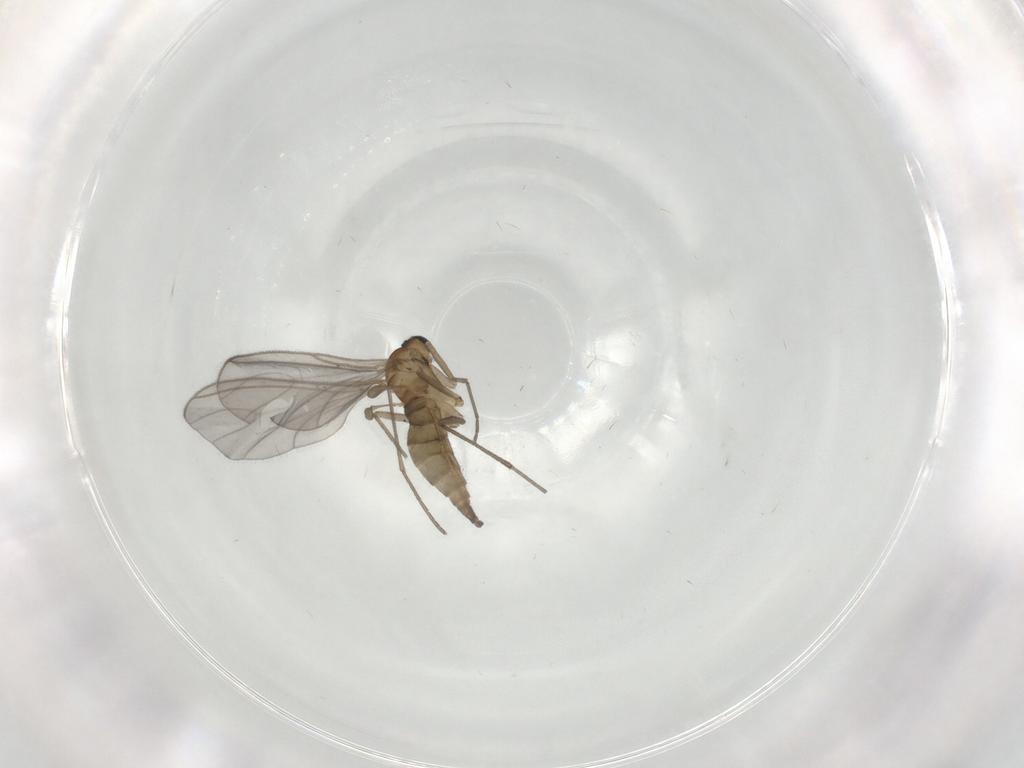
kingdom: Animalia
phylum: Arthropoda
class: Insecta
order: Diptera
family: Sciaridae
